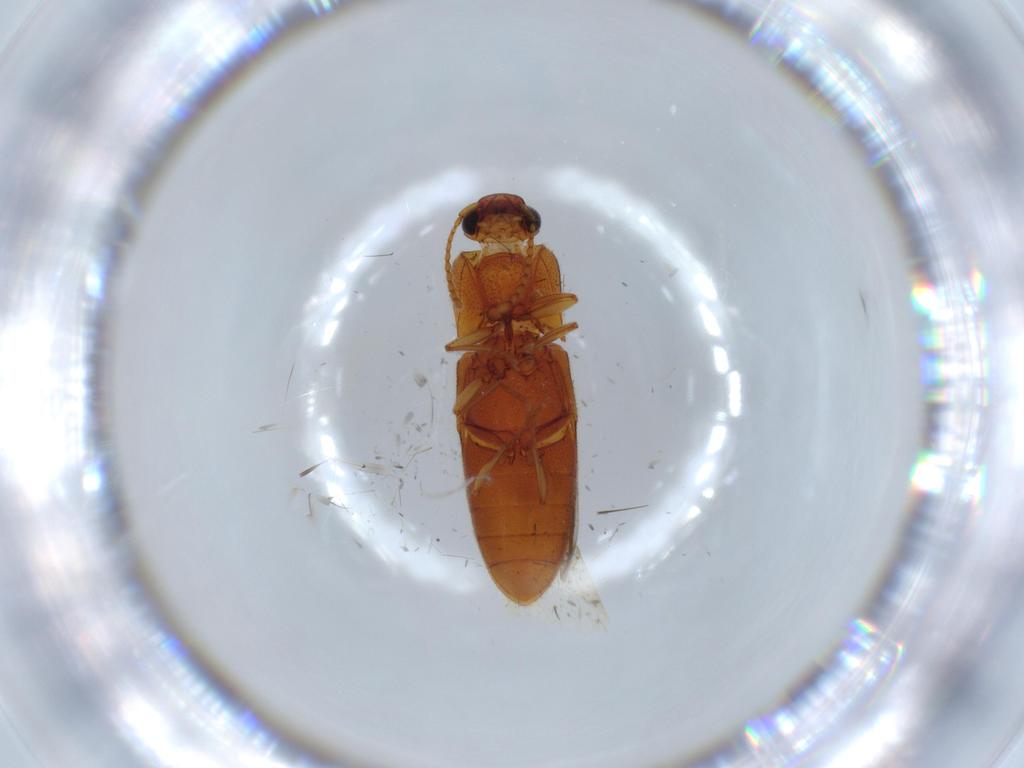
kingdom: Animalia
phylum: Arthropoda
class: Insecta
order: Coleoptera
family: Elateridae
